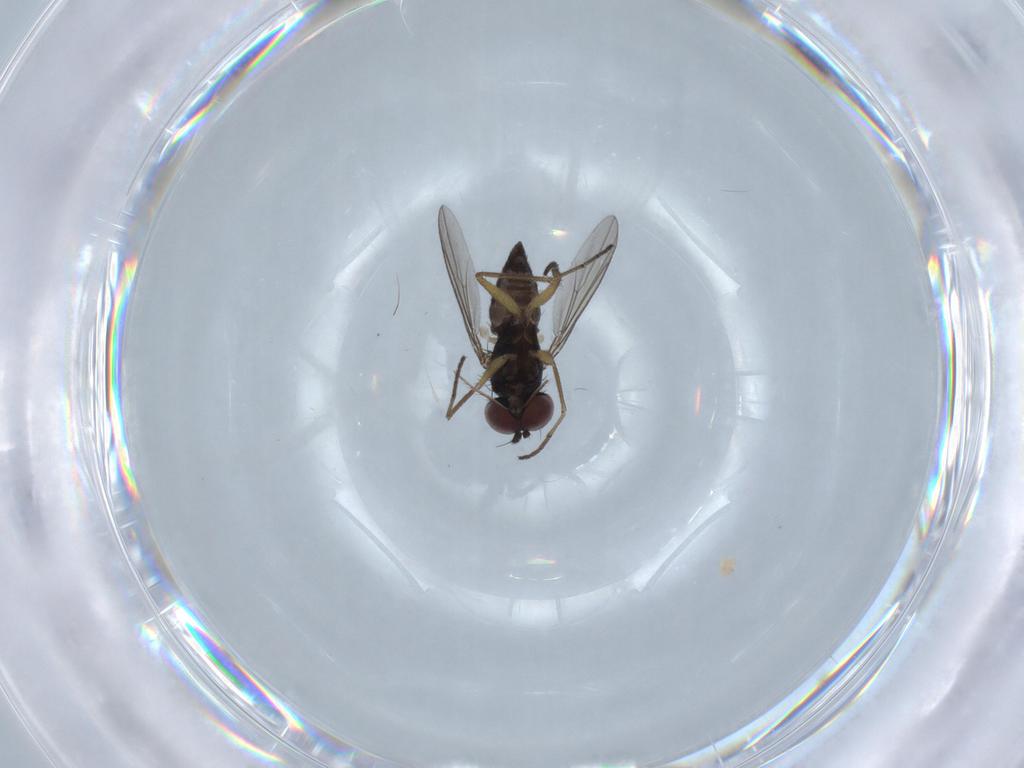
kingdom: Animalia
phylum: Arthropoda
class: Insecta
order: Diptera
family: Dolichopodidae
